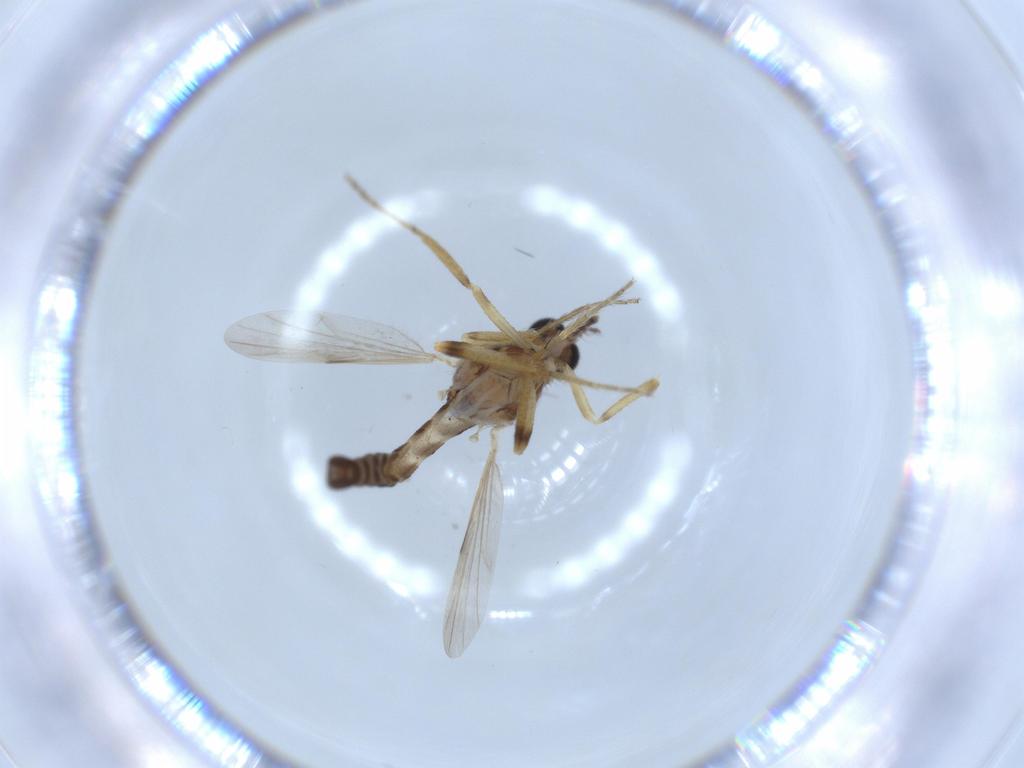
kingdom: Animalia
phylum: Arthropoda
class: Insecta
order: Diptera
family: Ceratopogonidae
